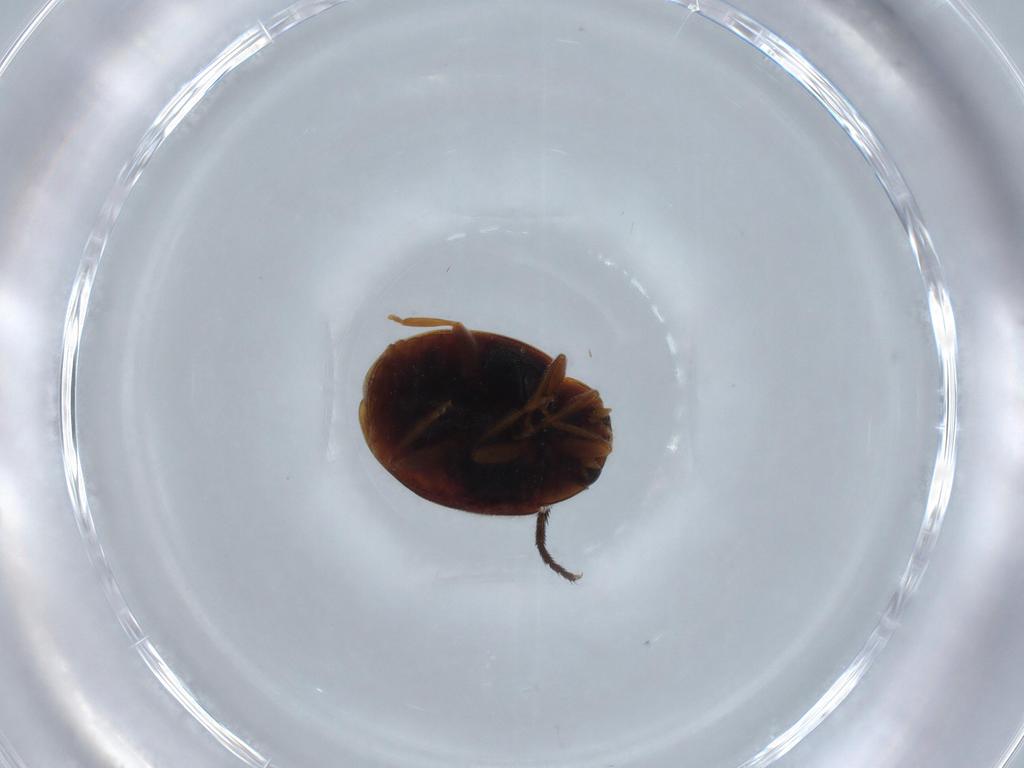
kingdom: Animalia
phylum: Arthropoda
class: Insecta
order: Coleoptera
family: Coccinellidae
